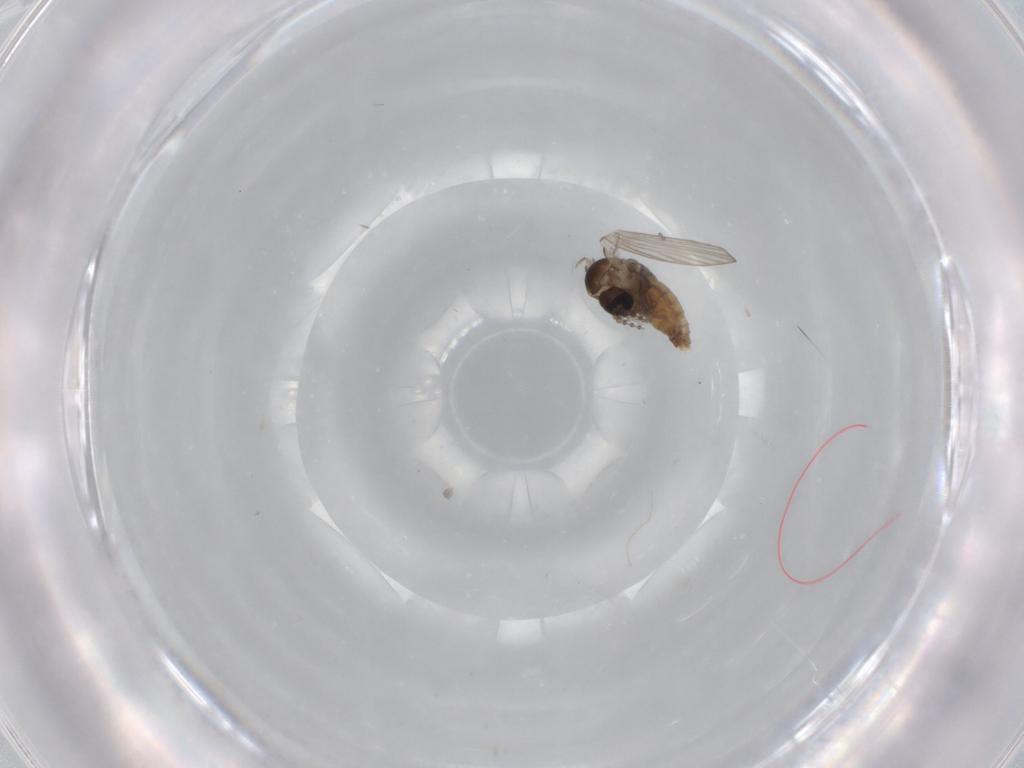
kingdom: Animalia
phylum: Arthropoda
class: Insecta
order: Diptera
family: Psychodidae
